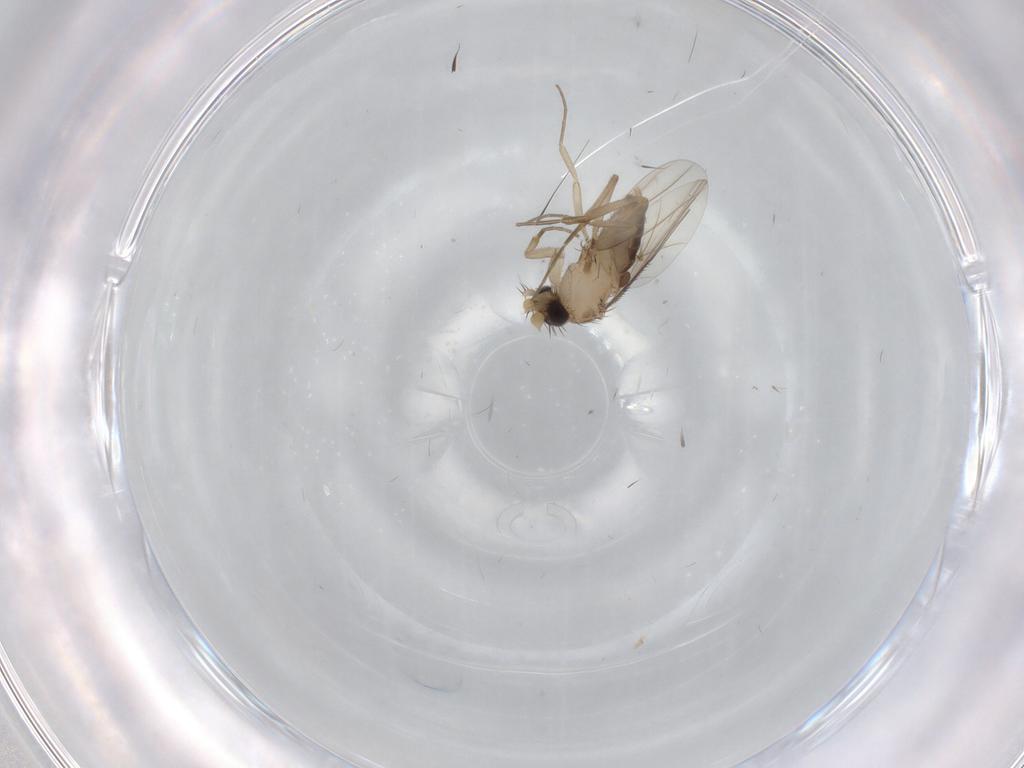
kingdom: Animalia
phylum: Arthropoda
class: Insecta
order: Diptera
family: Phoridae
